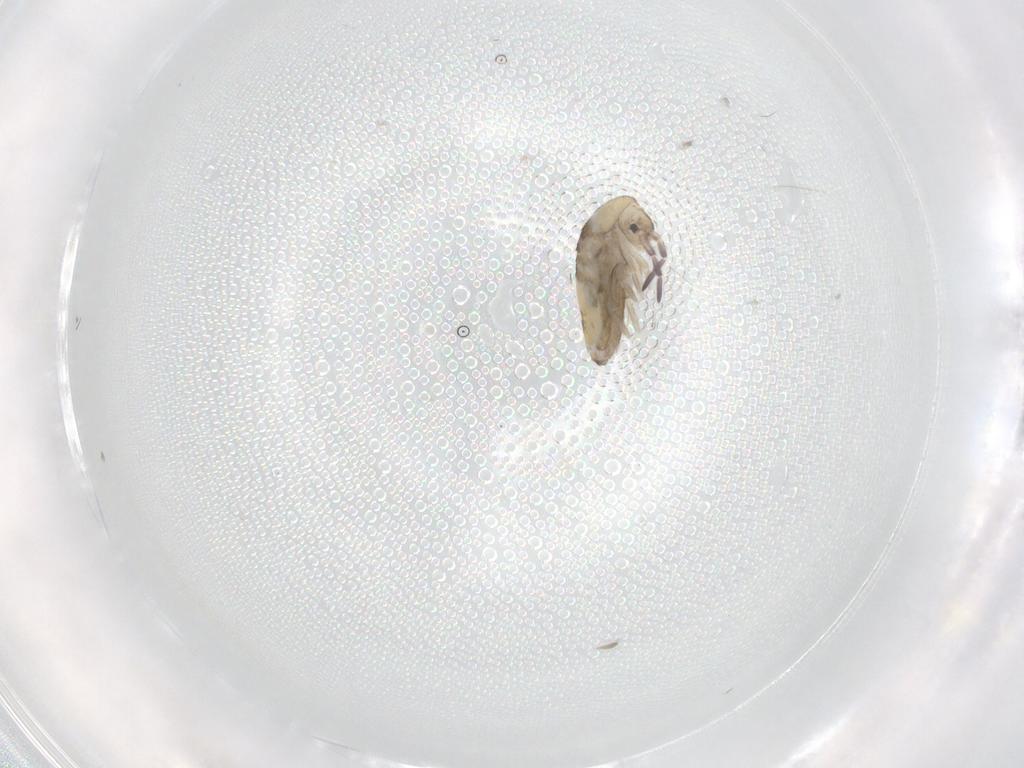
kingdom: Animalia
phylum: Arthropoda
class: Collembola
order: Entomobryomorpha
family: Entomobryidae
